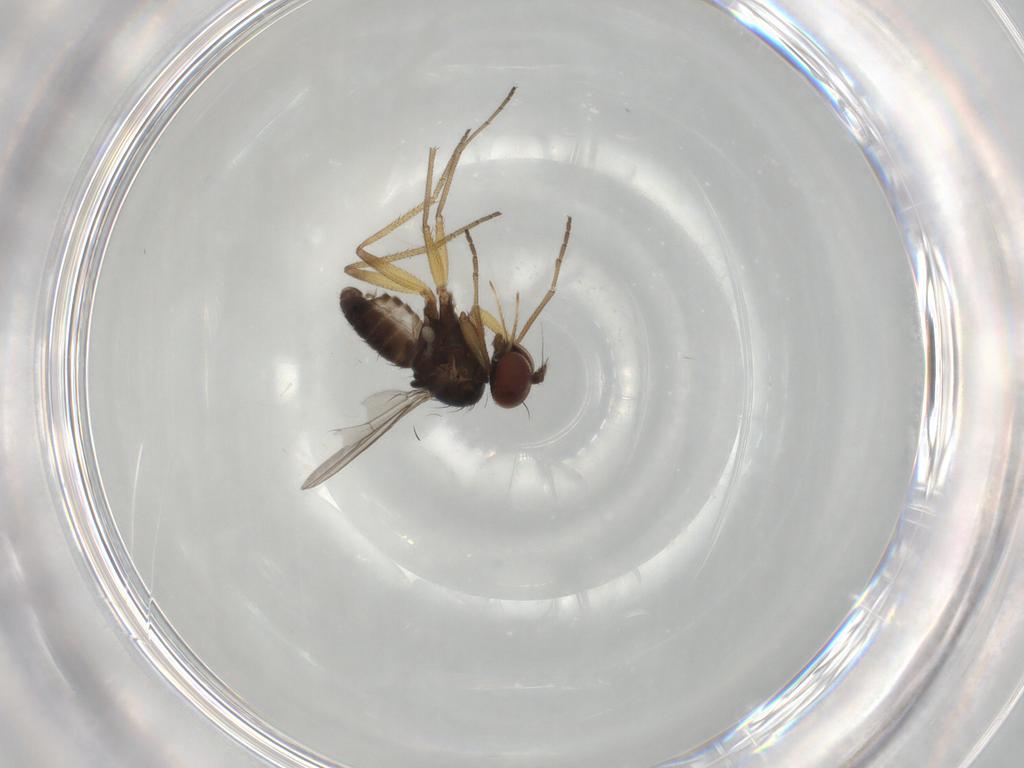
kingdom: Animalia
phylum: Arthropoda
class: Insecta
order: Diptera
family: Dolichopodidae
